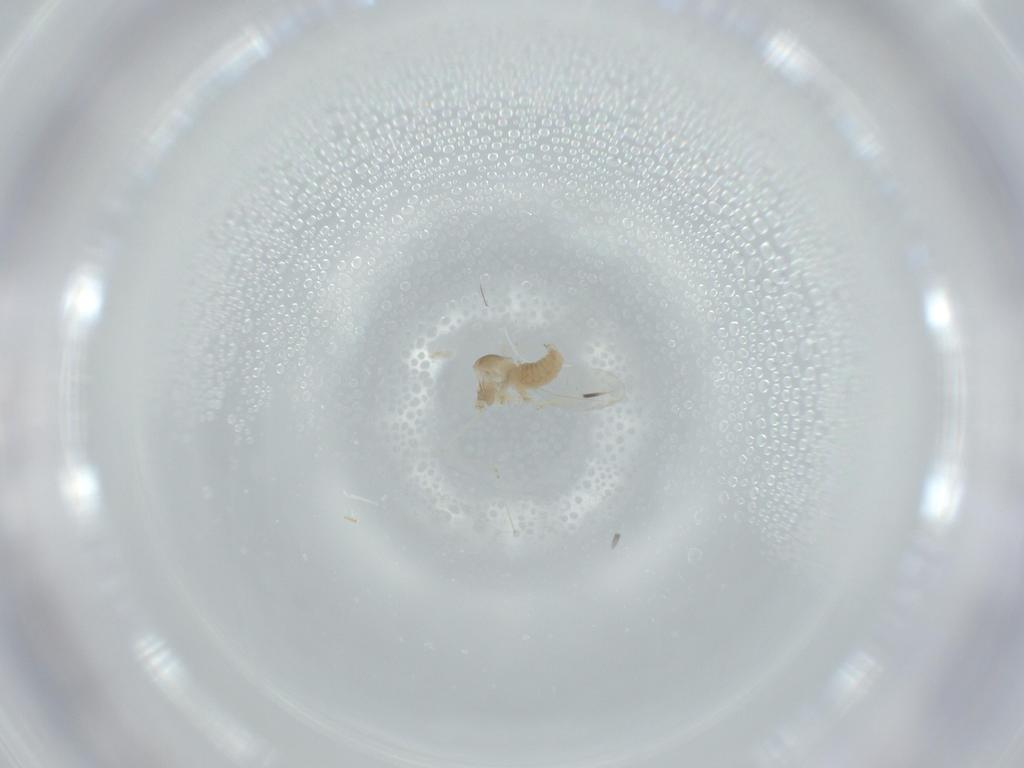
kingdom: Animalia
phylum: Arthropoda
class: Insecta
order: Diptera
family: Cecidomyiidae
